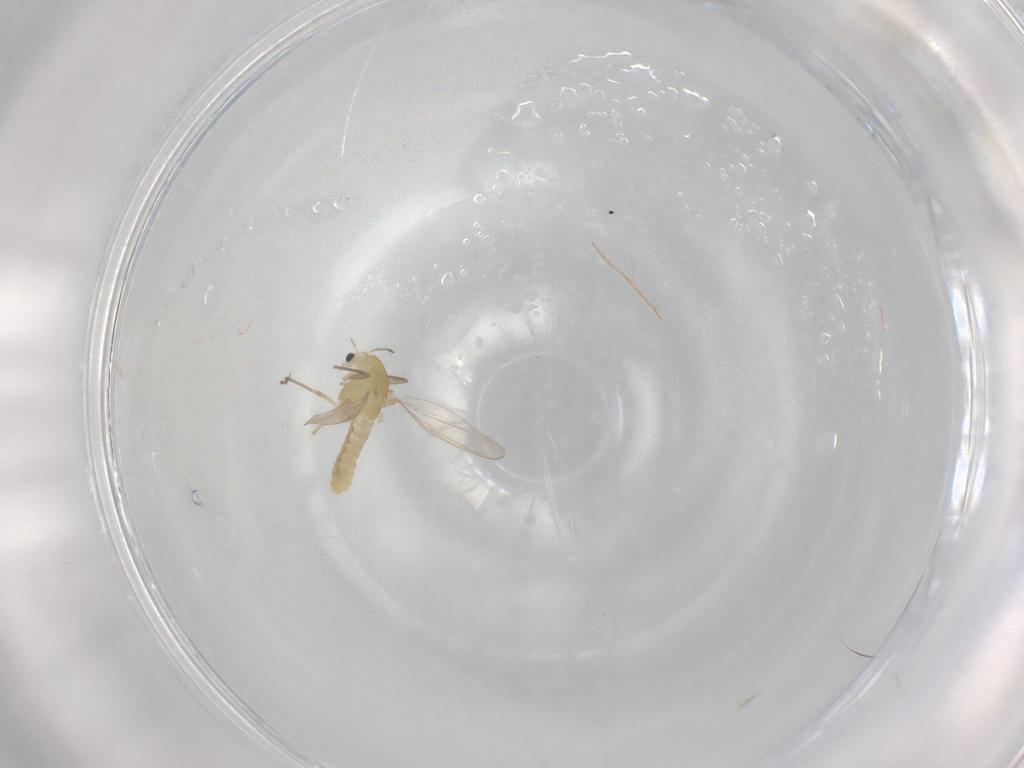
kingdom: Animalia
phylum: Arthropoda
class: Insecta
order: Diptera
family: Chironomidae
